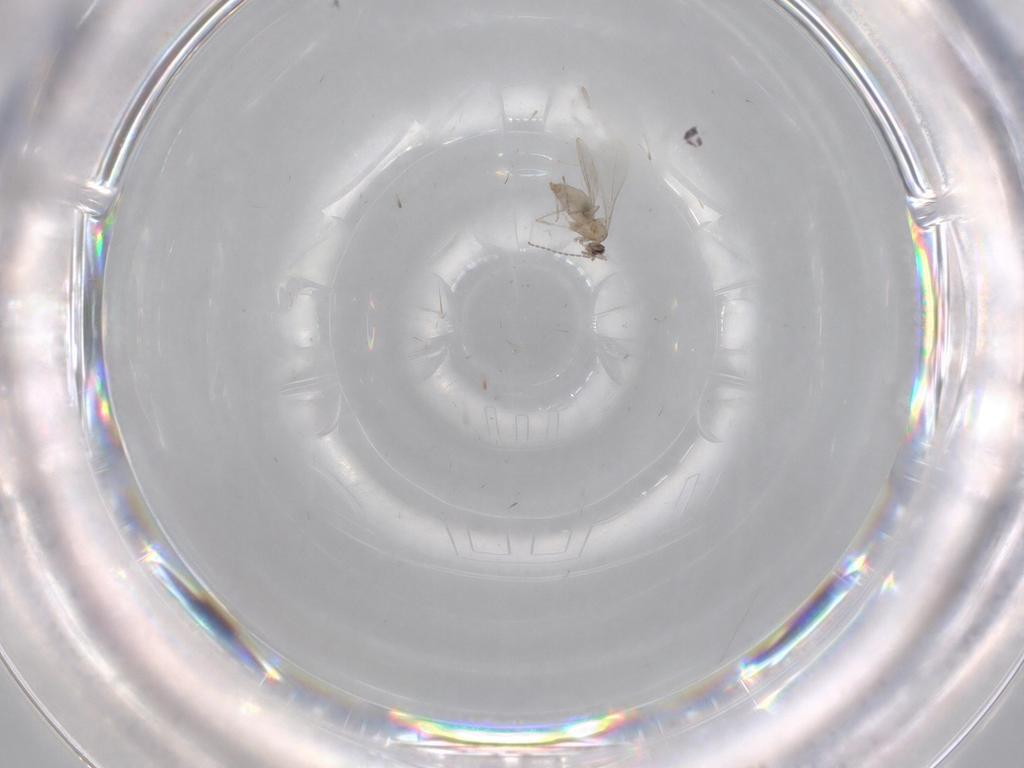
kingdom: Animalia
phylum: Arthropoda
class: Insecta
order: Diptera
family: Cecidomyiidae
